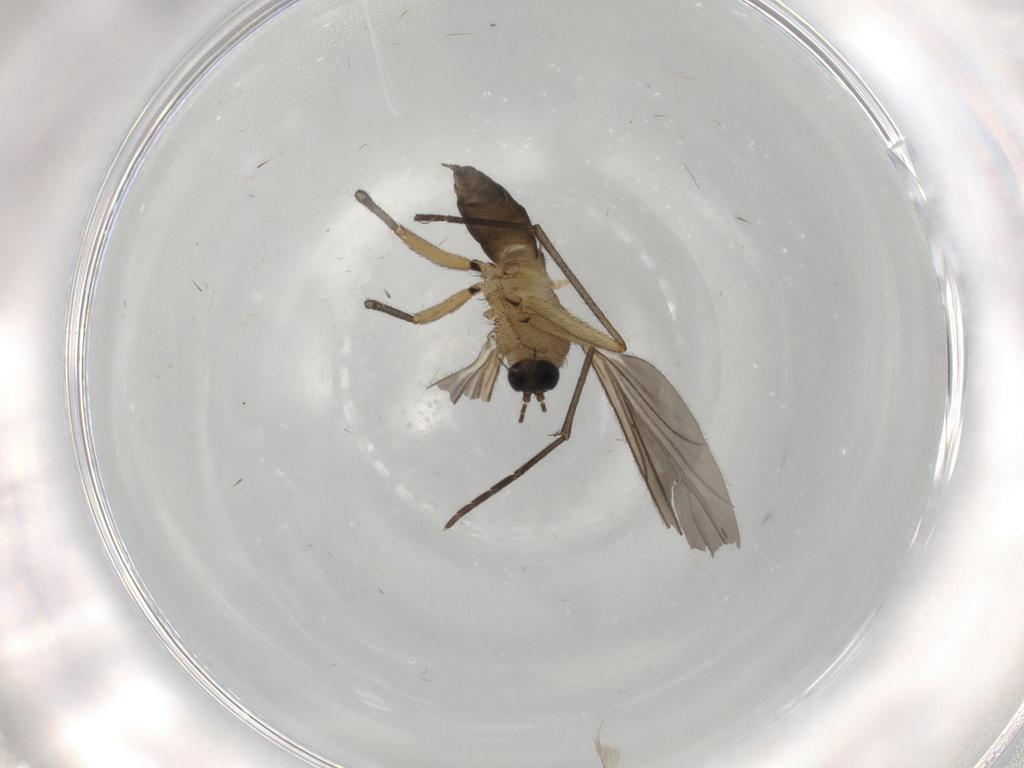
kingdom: Animalia
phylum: Arthropoda
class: Insecta
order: Diptera
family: Sciaridae
